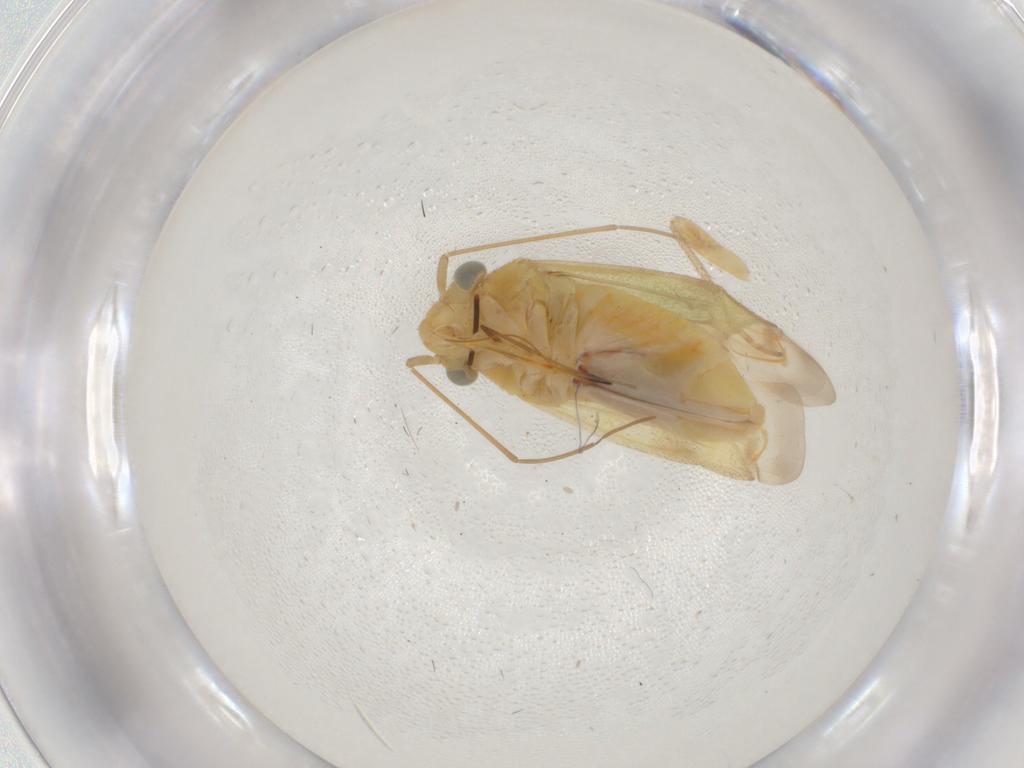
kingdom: Animalia
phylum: Arthropoda
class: Insecta
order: Hemiptera
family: Miridae
